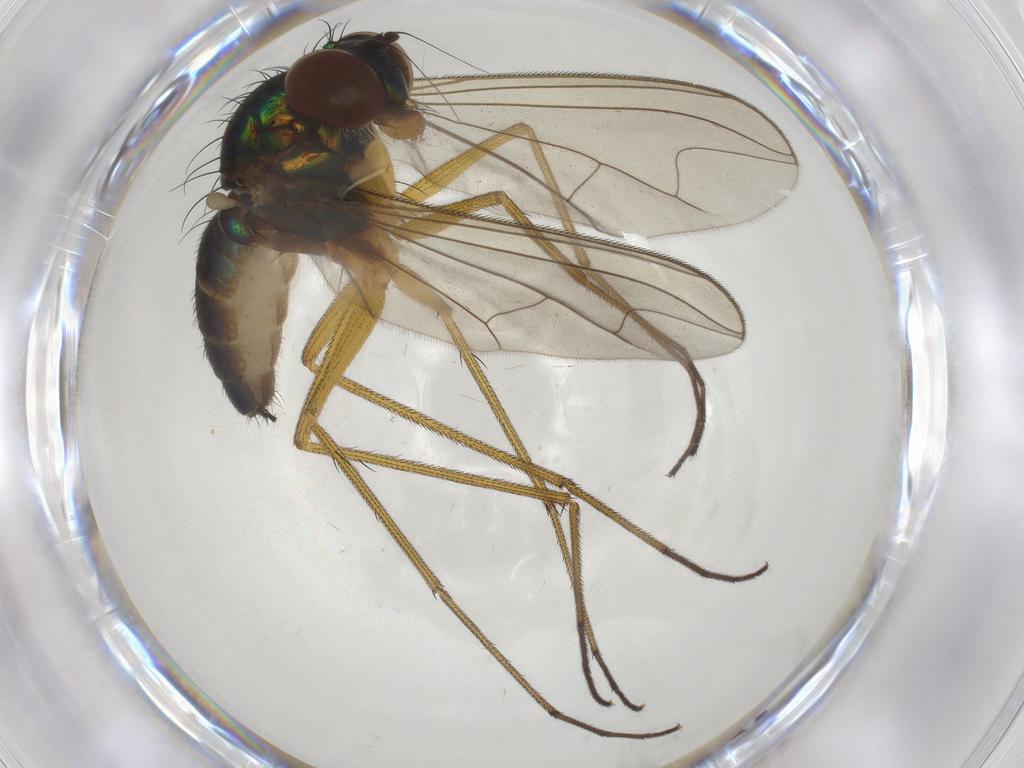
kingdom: Animalia
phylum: Arthropoda
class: Insecta
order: Diptera
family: Dolichopodidae
